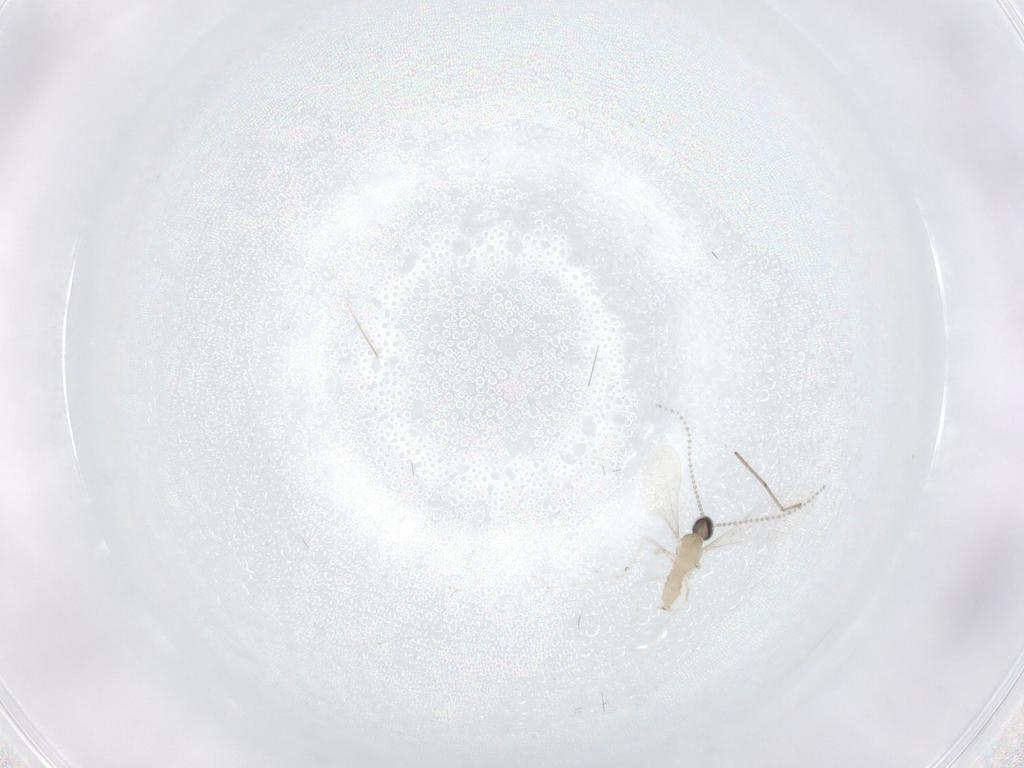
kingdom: Animalia
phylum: Arthropoda
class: Insecta
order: Diptera
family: Cecidomyiidae
